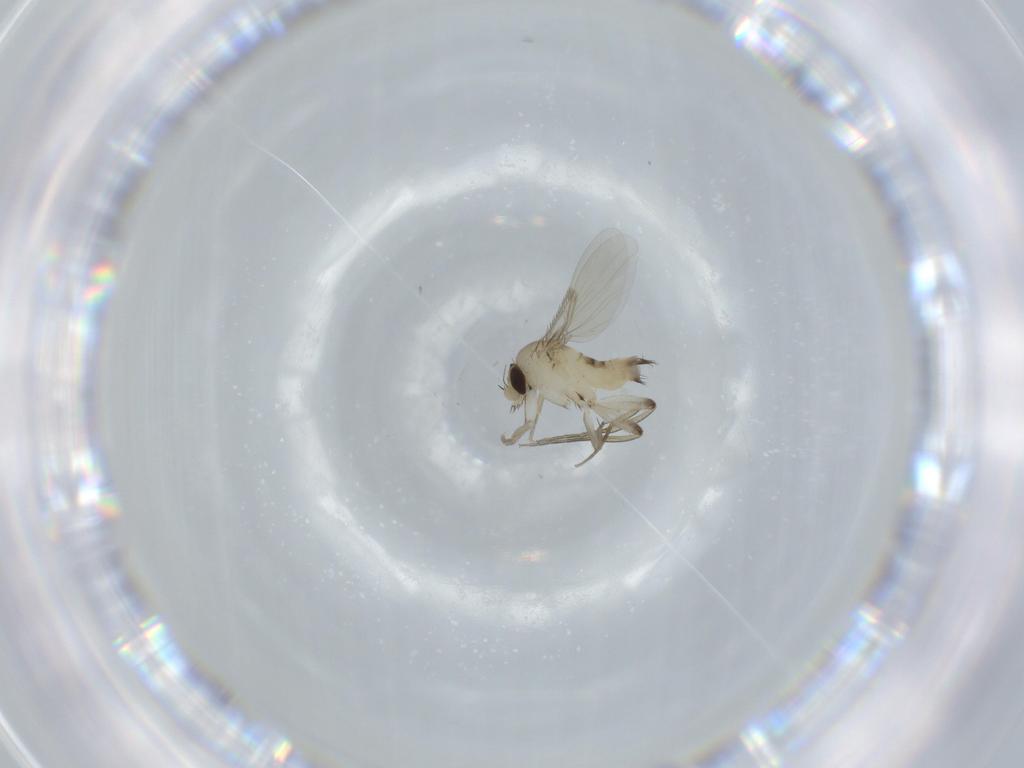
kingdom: Animalia
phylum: Arthropoda
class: Insecta
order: Diptera
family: Phoridae
